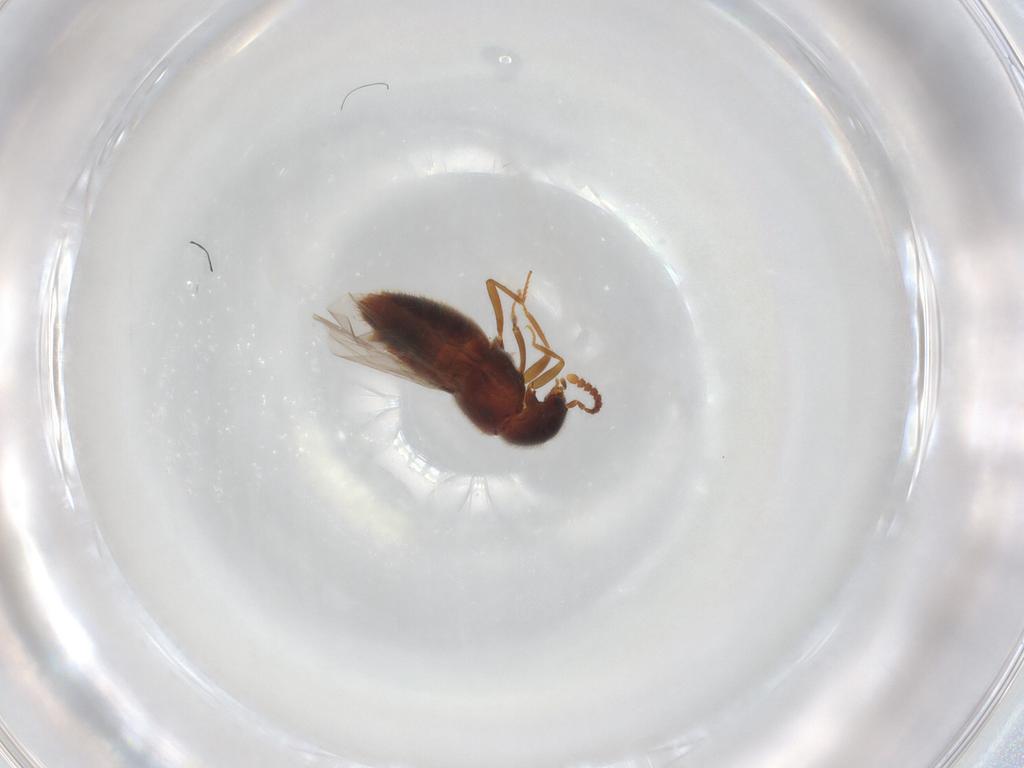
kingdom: Animalia
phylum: Arthropoda
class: Insecta
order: Coleoptera
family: Staphylinidae
